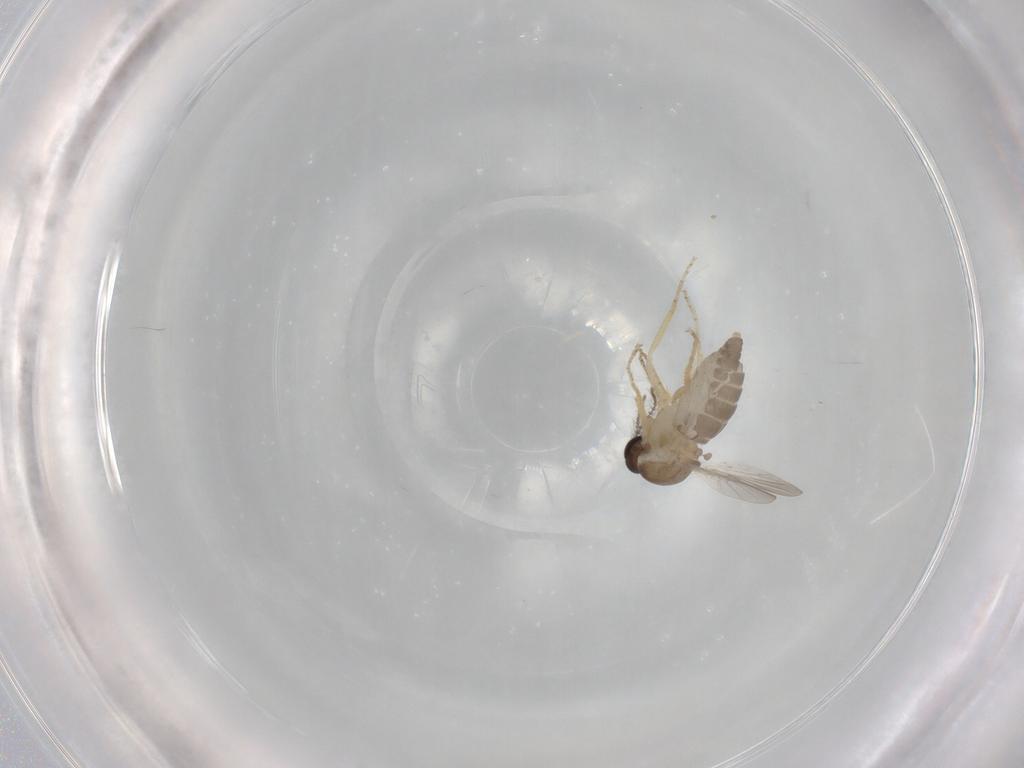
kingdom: Animalia
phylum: Arthropoda
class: Insecta
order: Diptera
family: Ceratopogonidae
